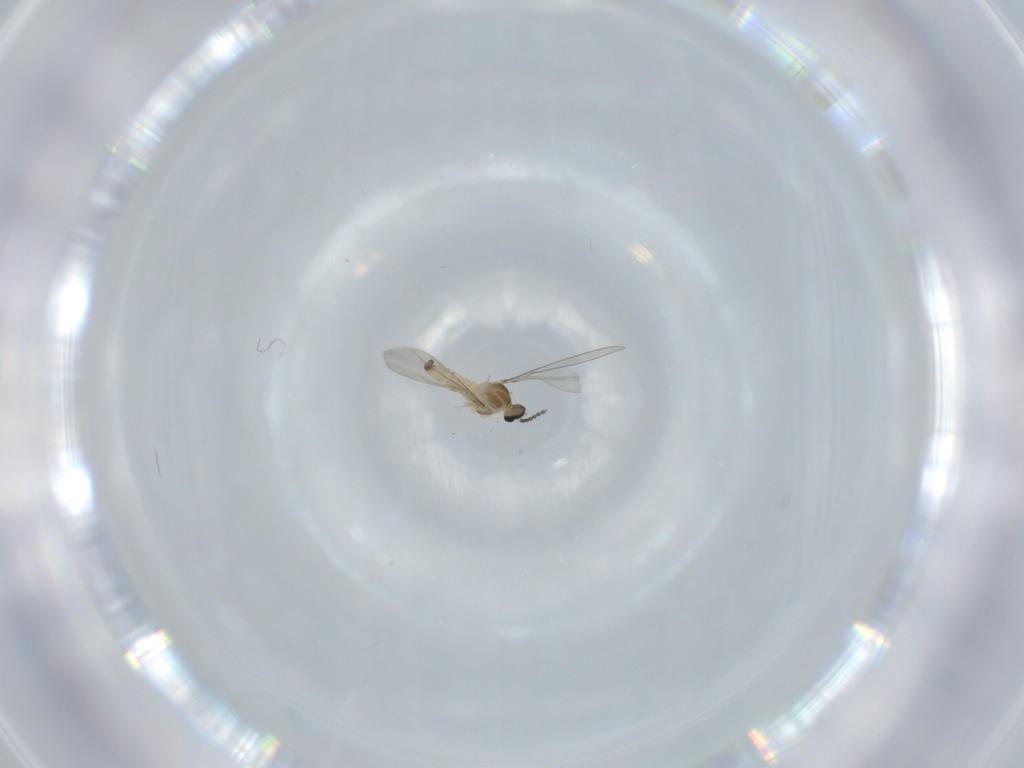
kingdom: Animalia
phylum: Arthropoda
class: Insecta
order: Diptera
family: Cecidomyiidae
